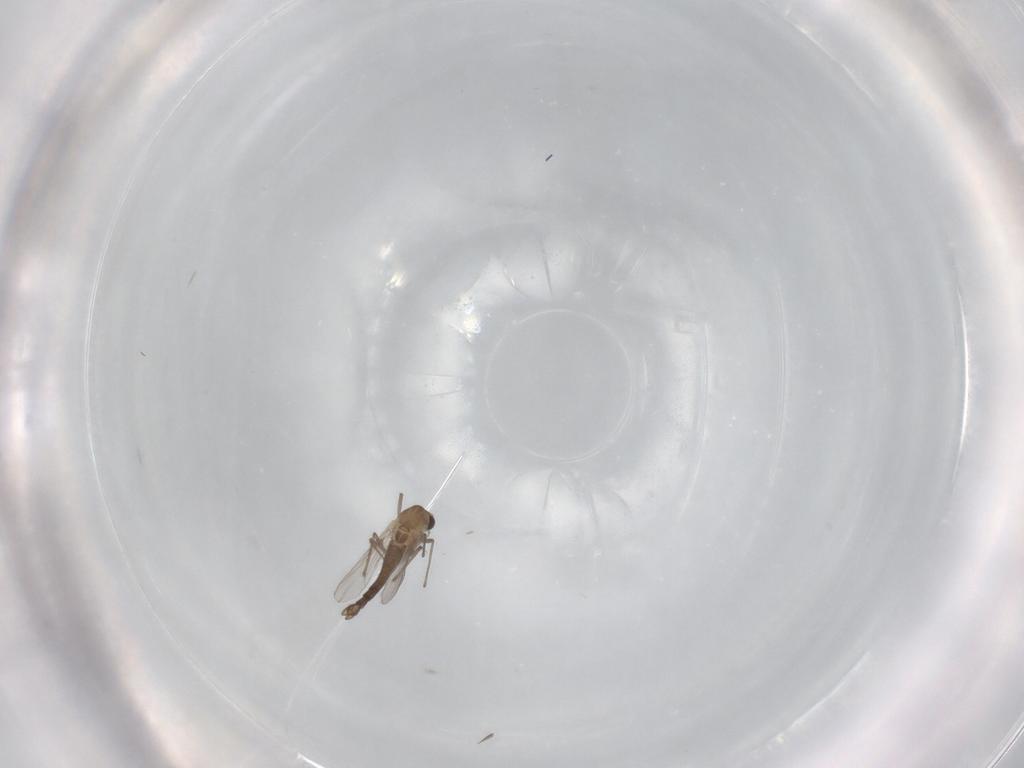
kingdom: Animalia
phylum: Arthropoda
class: Insecta
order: Diptera
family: Chironomidae
